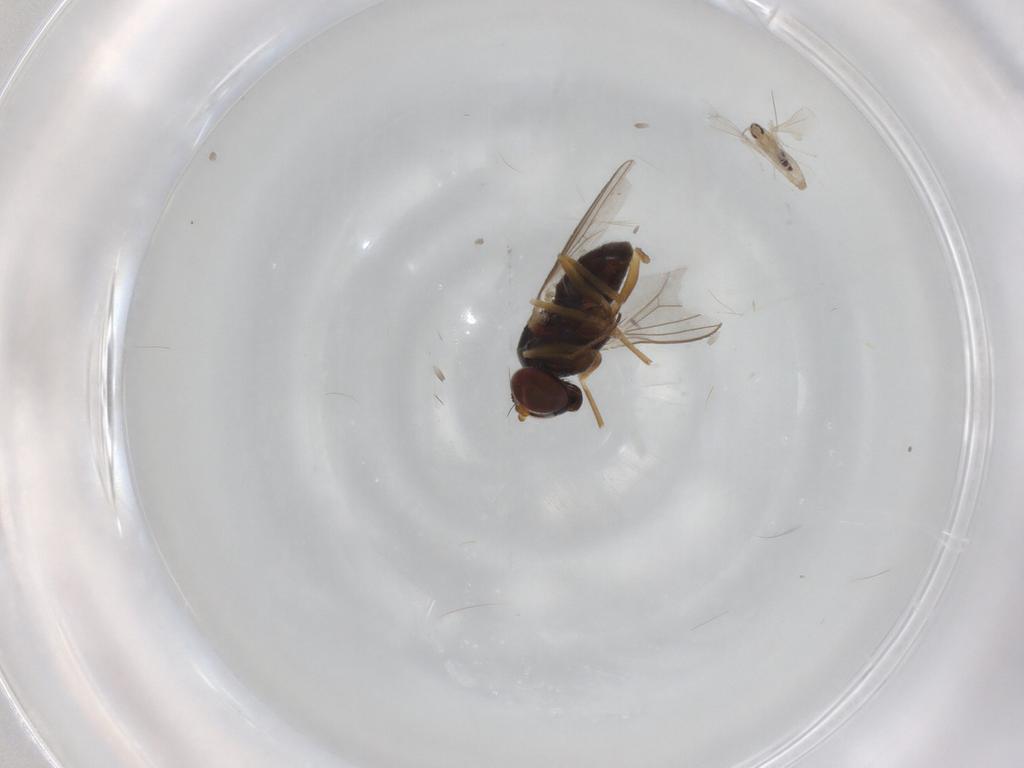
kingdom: Animalia
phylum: Arthropoda
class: Insecta
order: Diptera
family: Dolichopodidae
